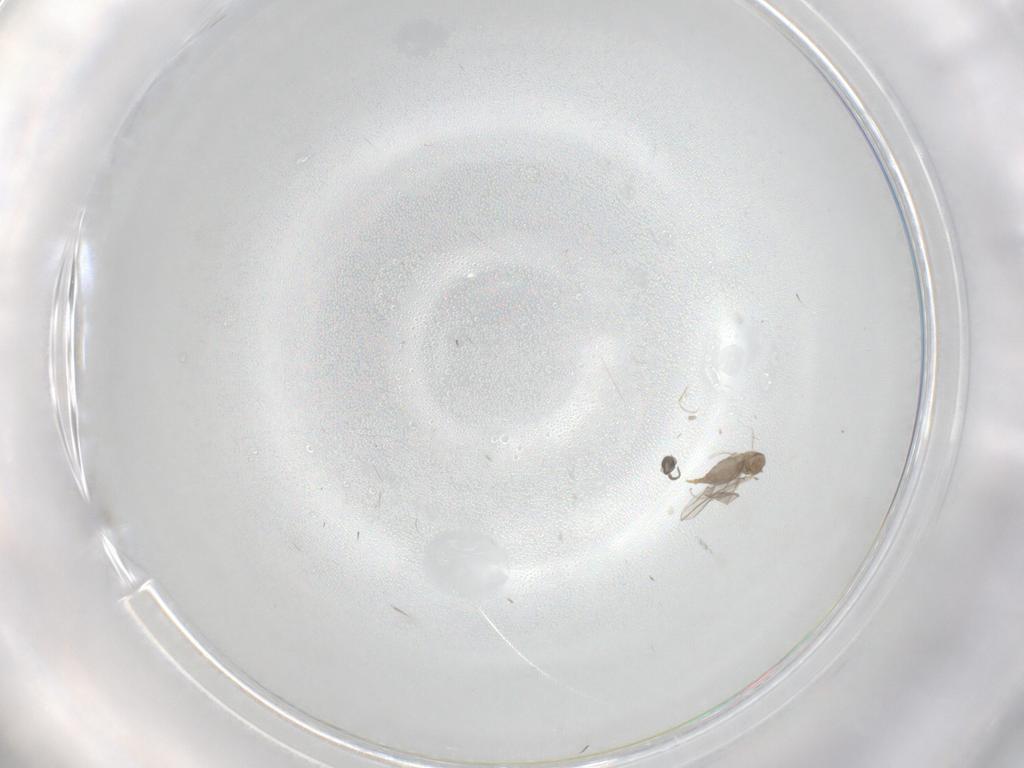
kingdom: Animalia
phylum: Arthropoda
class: Insecta
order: Diptera
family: Cecidomyiidae
